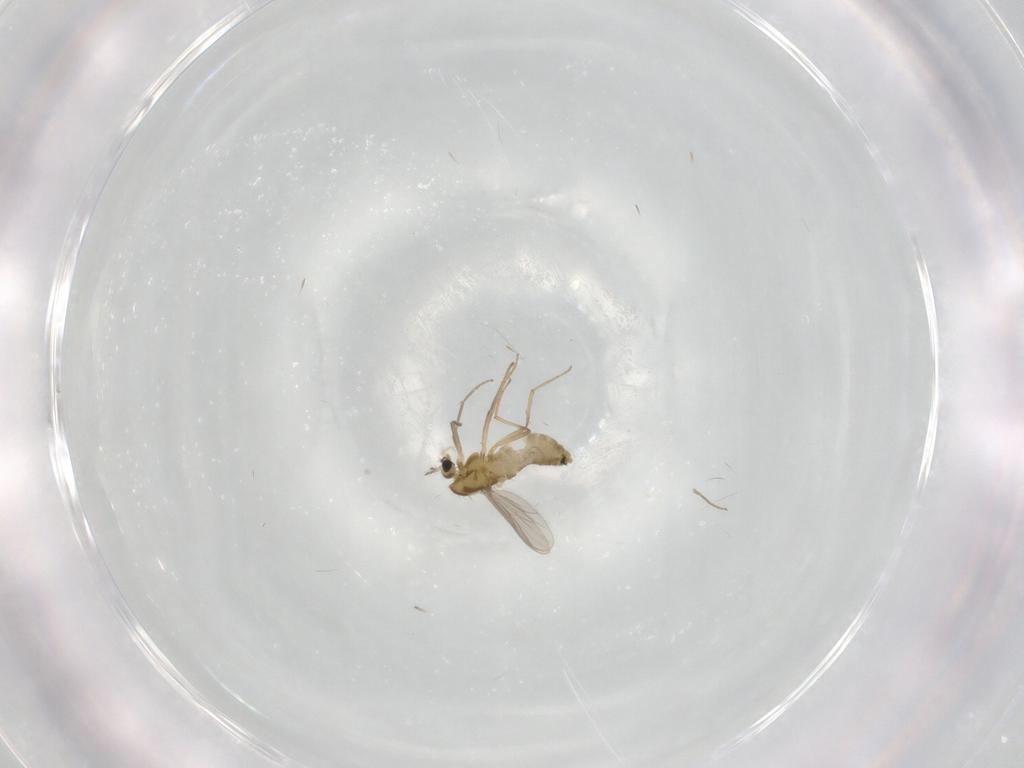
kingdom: Animalia
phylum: Arthropoda
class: Insecta
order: Diptera
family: Chironomidae
